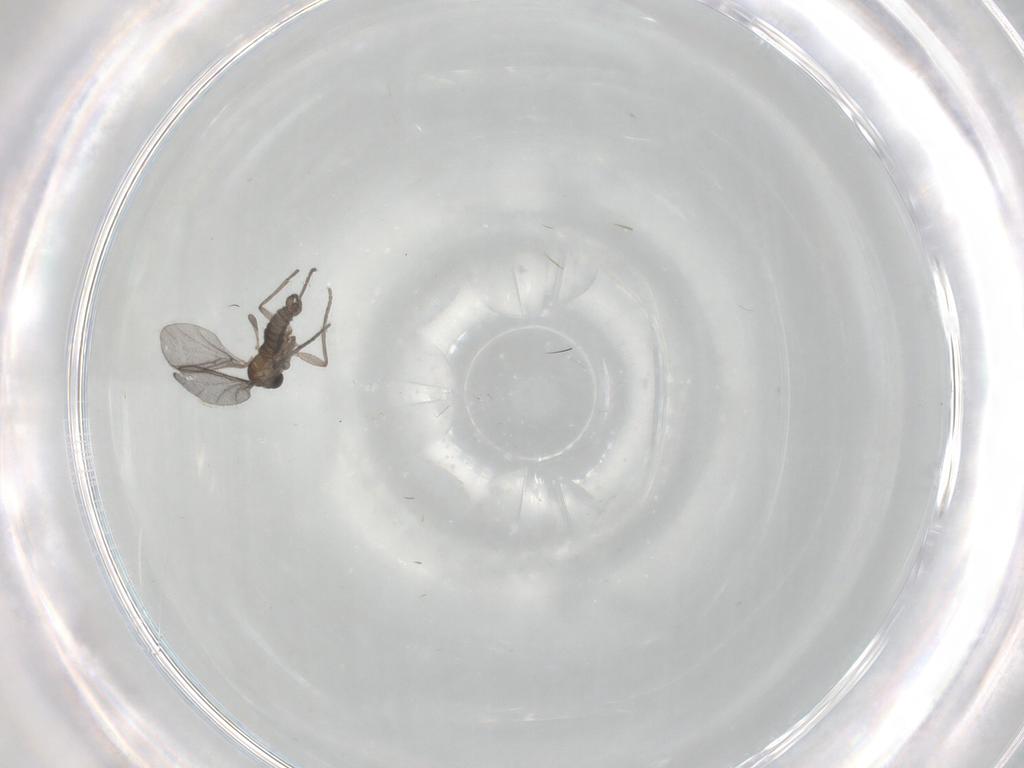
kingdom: Animalia
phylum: Arthropoda
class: Insecta
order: Diptera
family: Sciaridae
